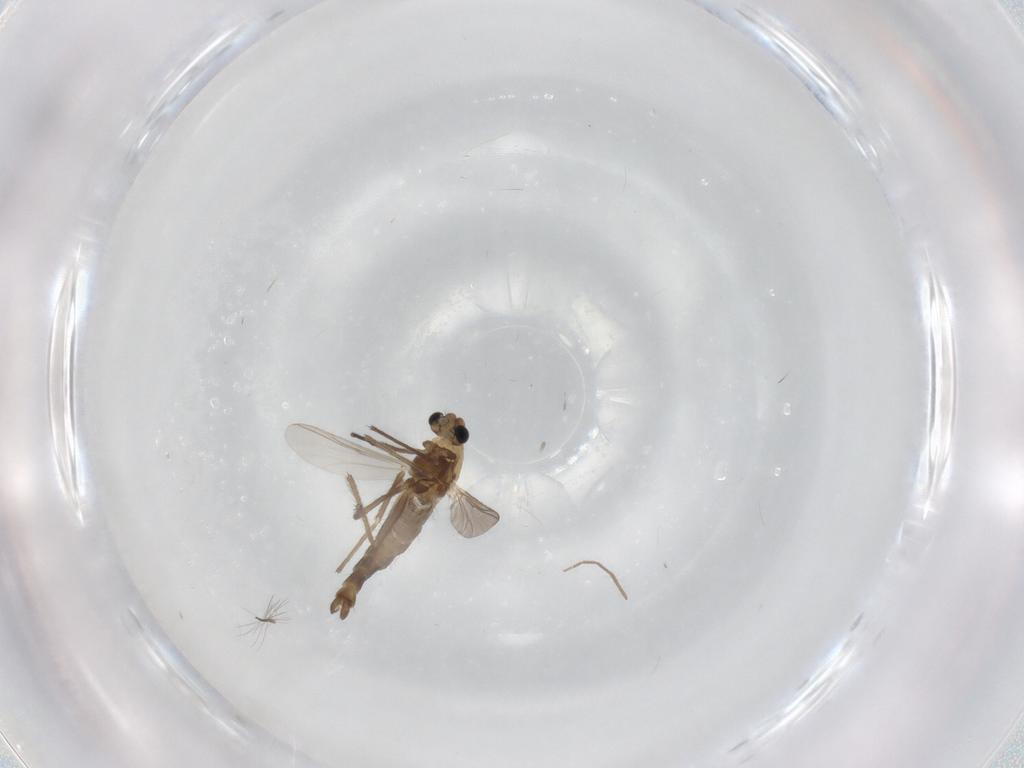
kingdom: Animalia
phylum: Arthropoda
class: Insecta
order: Diptera
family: Chironomidae
